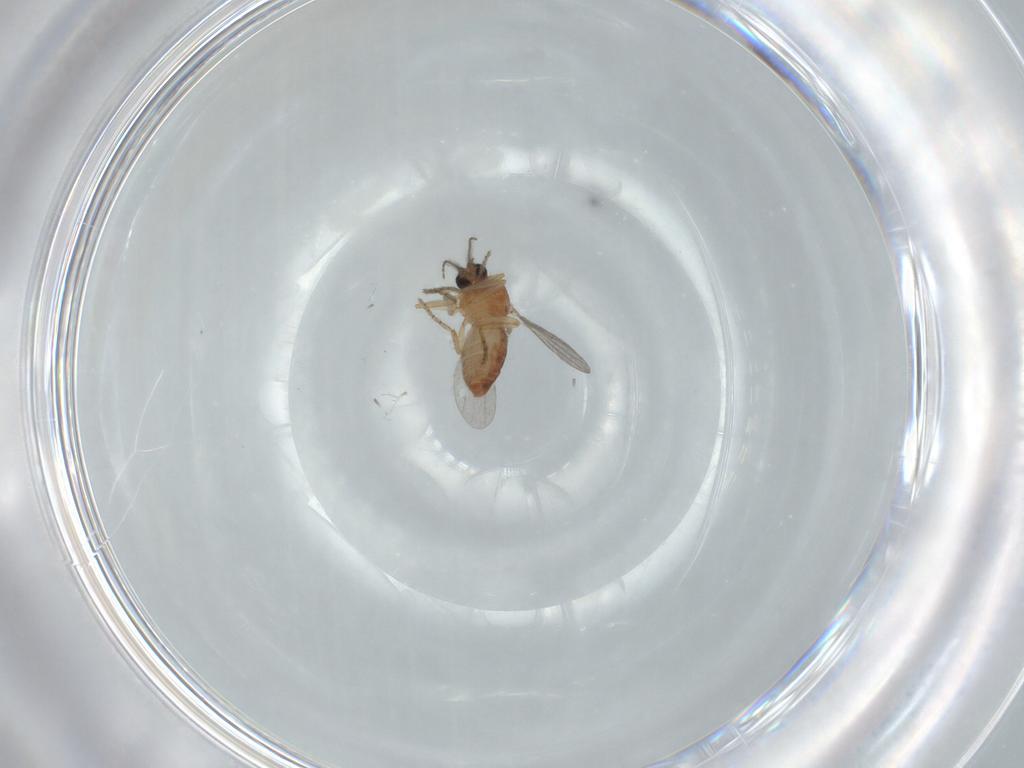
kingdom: Animalia
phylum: Arthropoda
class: Insecta
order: Diptera
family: Ceratopogonidae
